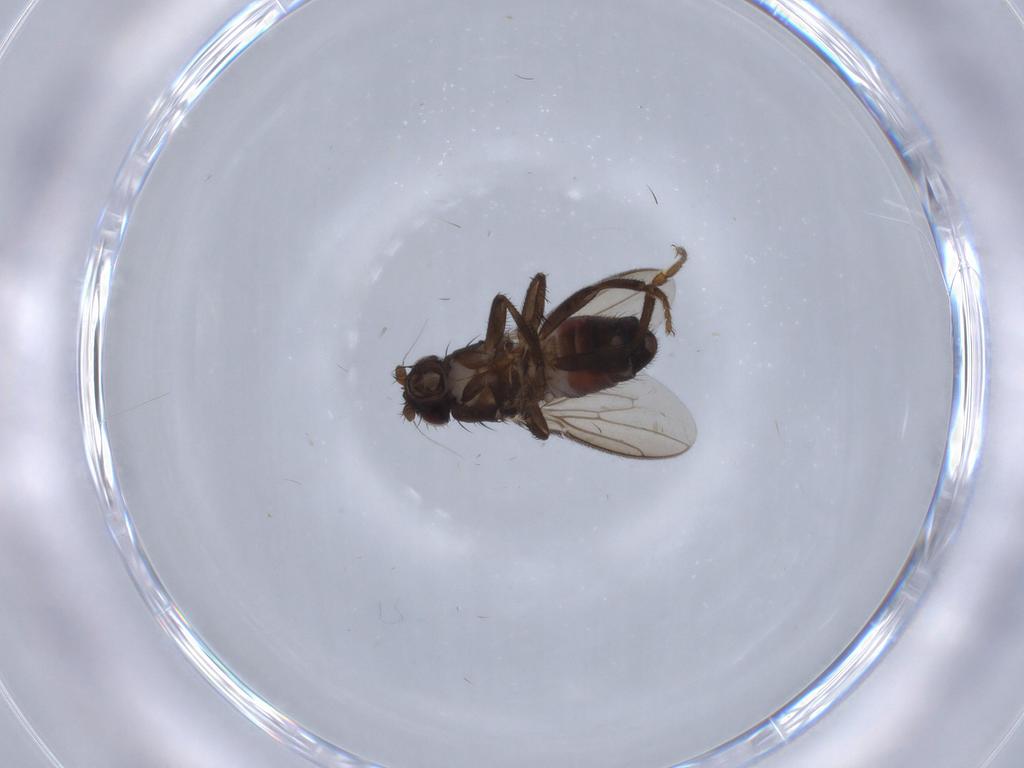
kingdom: Animalia
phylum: Arthropoda
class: Insecta
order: Diptera
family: Sphaeroceridae
